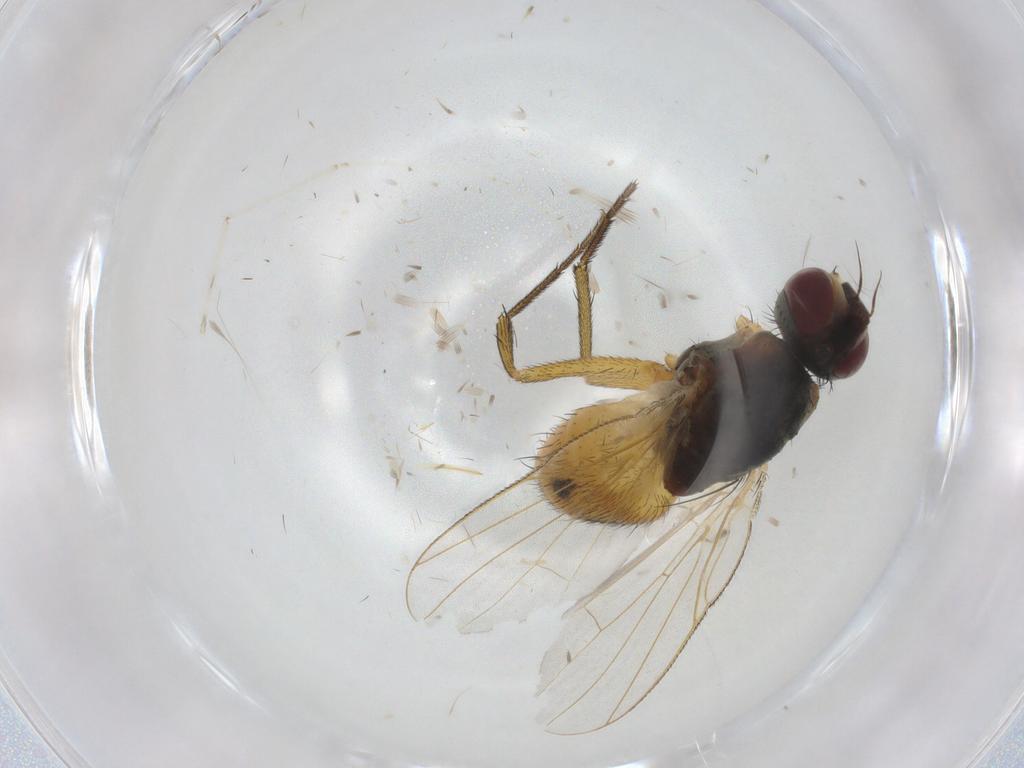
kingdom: Animalia
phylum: Arthropoda
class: Insecta
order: Diptera
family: Muscidae
